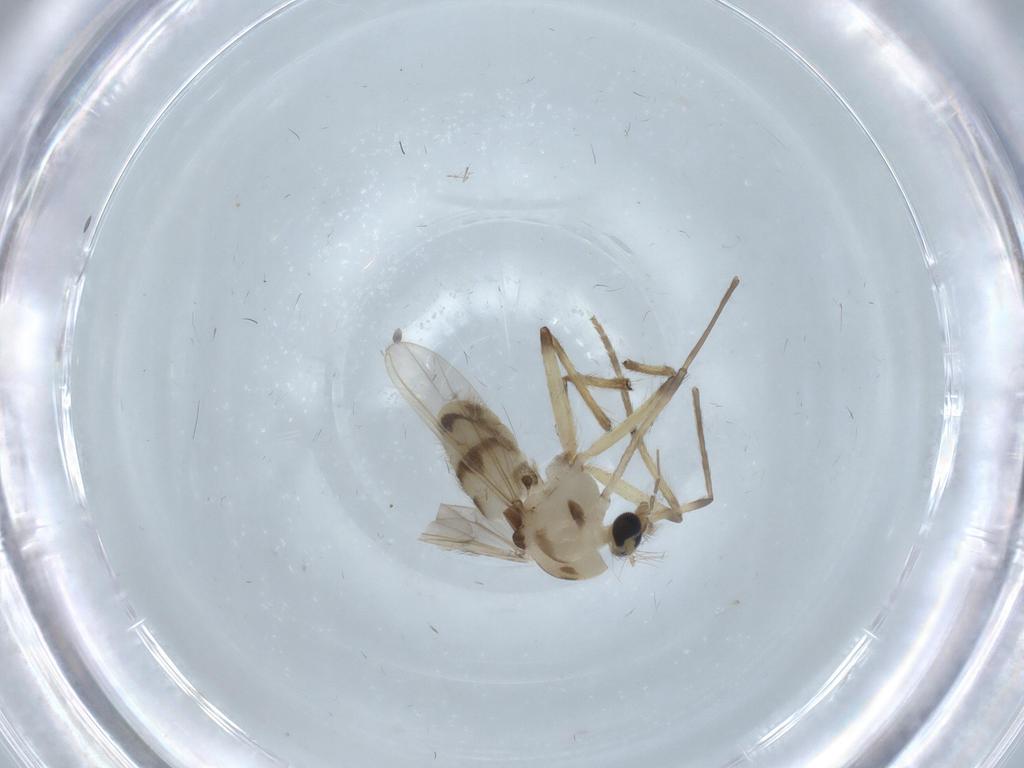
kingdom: Animalia
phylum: Arthropoda
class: Insecta
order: Diptera
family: Chironomidae
